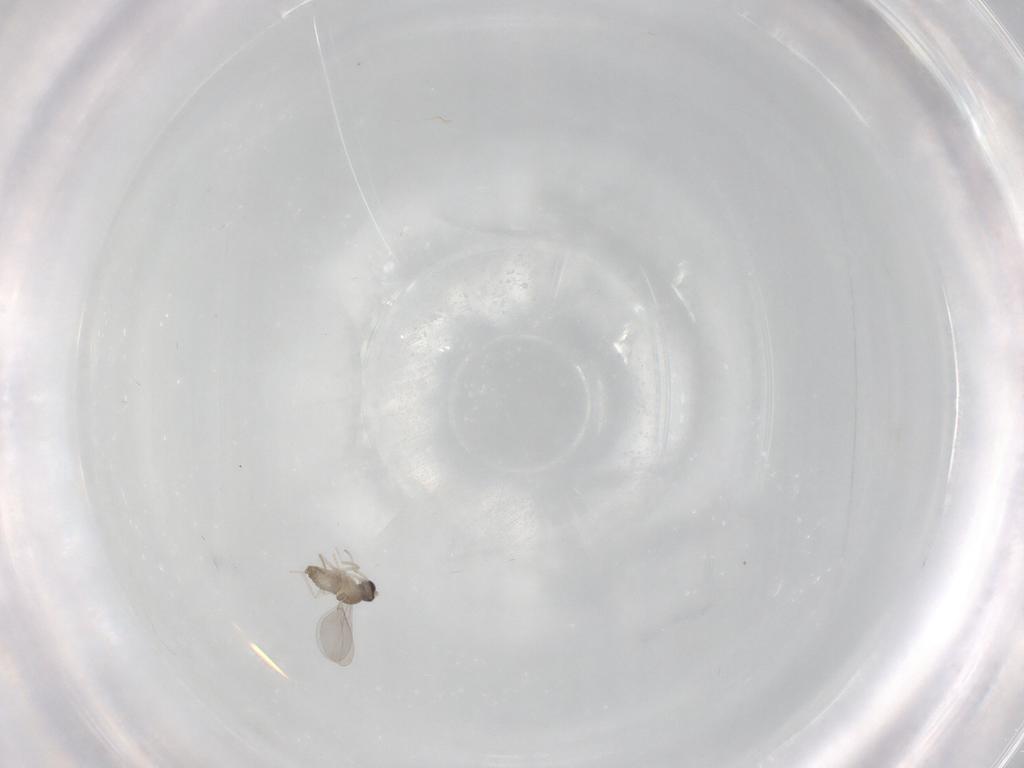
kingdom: Animalia
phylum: Arthropoda
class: Insecta
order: Diptera
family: Cecidomyiidae
